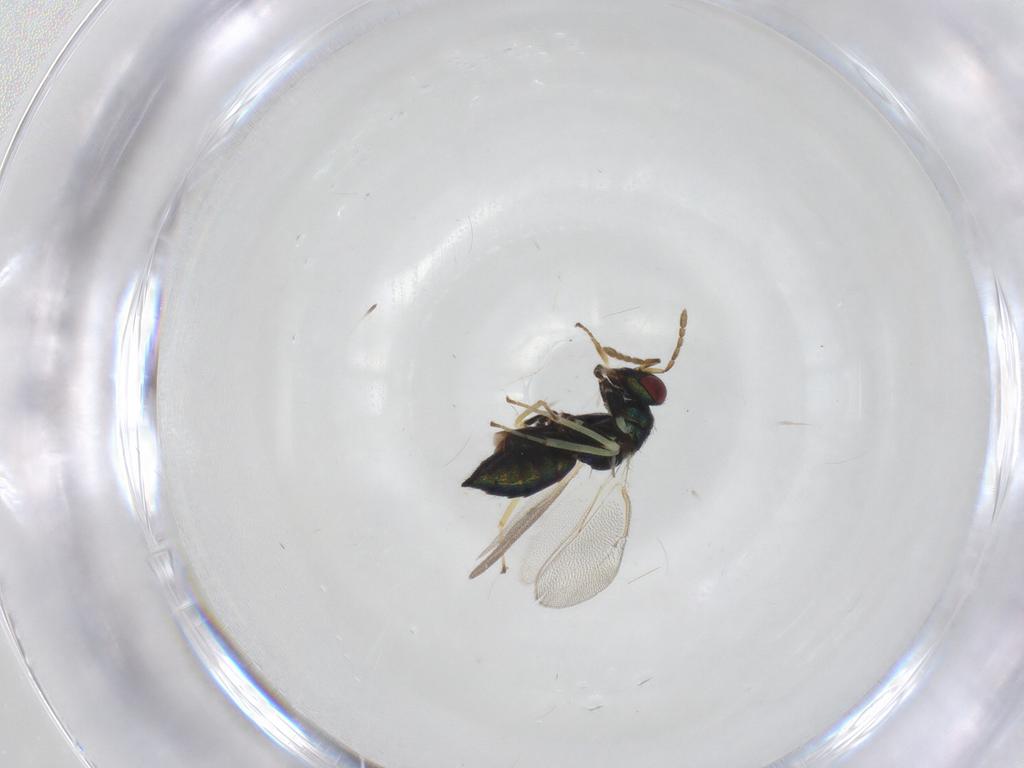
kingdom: Animalia
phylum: Arthropoda
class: Insecta
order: Hymenoptera
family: Eulophidae
